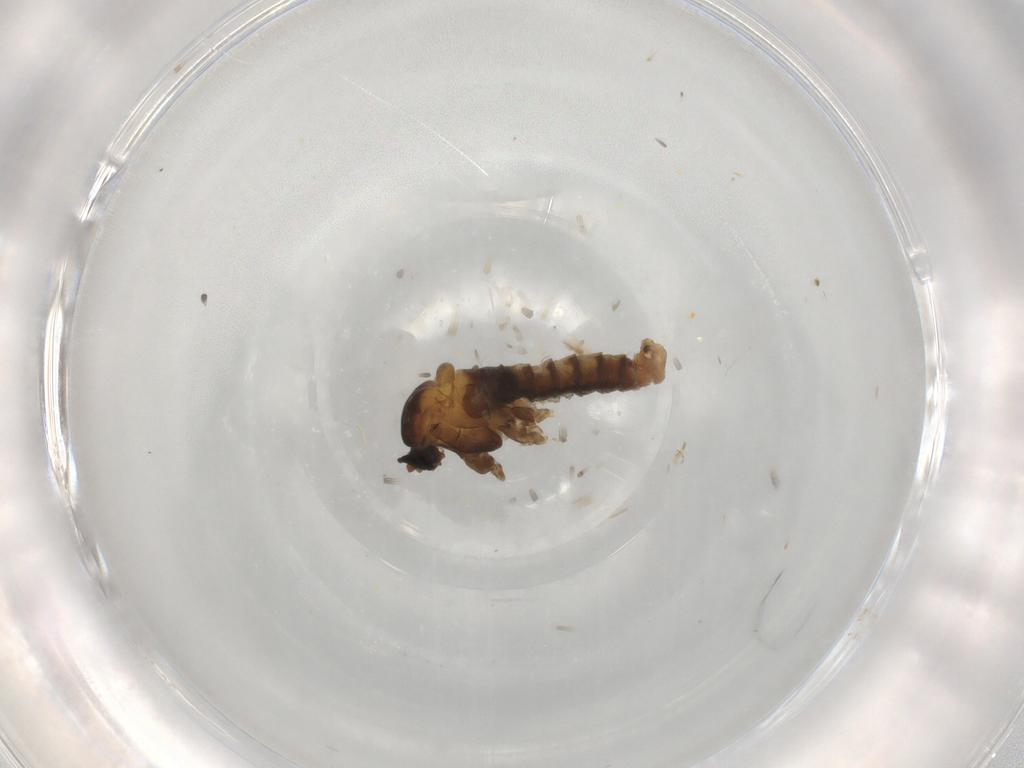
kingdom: Animalia
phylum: Arthropoda
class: Insecta
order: Diptera
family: Cecidomyiidae
